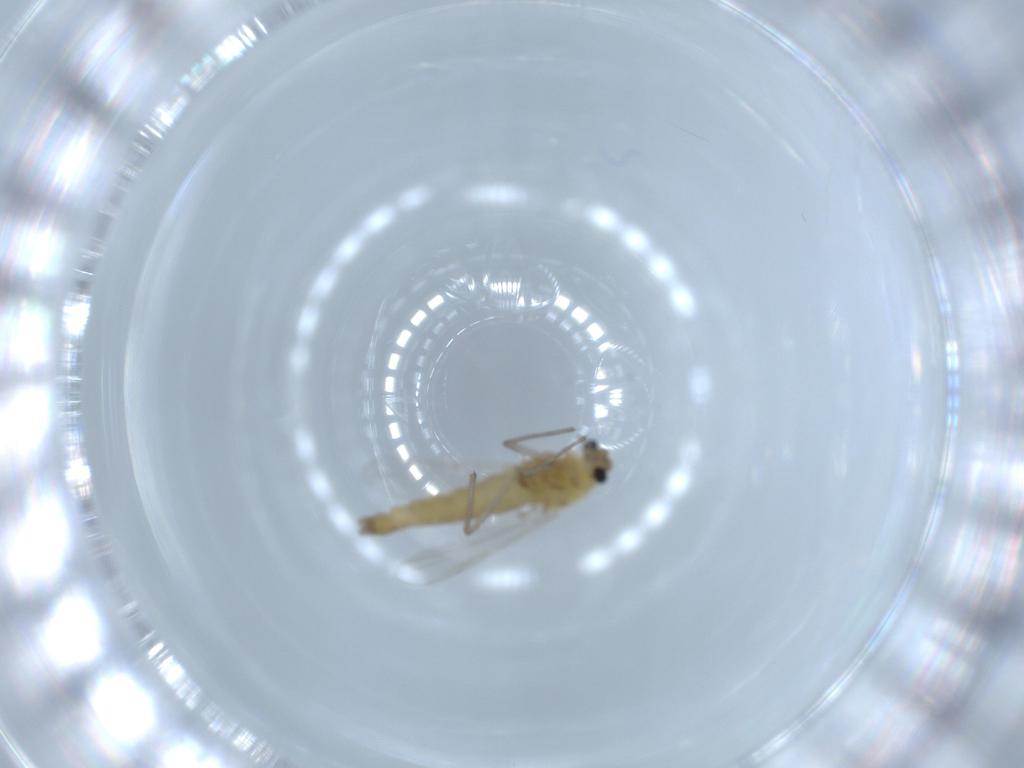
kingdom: Animalia
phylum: Arthropoda
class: Insecta
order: Diptera
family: Chironomidae
